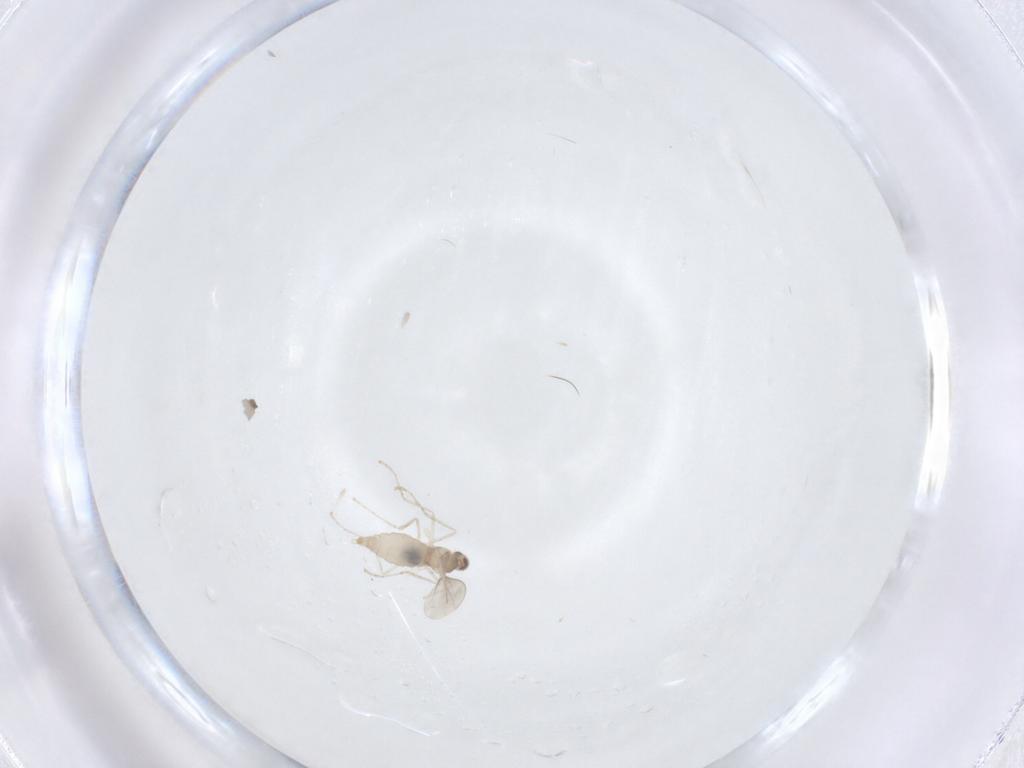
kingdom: Animalia
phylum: Arthropoda
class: Insecta
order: Diptera
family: Cecidomyiidae
